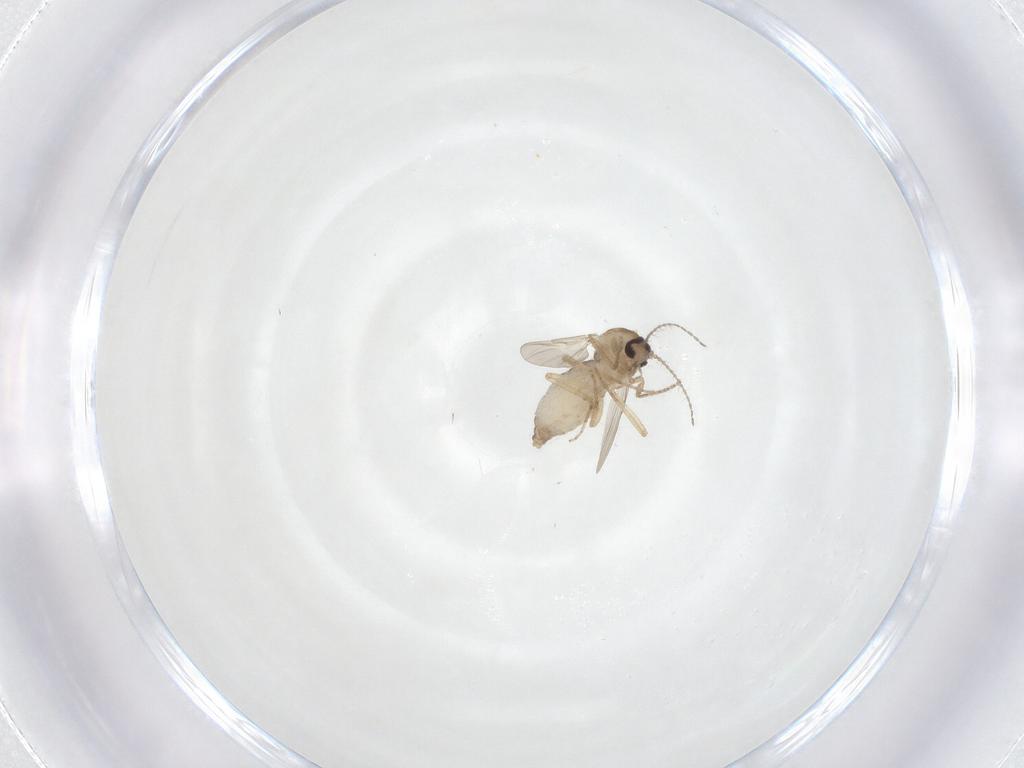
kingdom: Animalia
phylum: Arthropoda
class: Insecta
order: Diptera
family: Ceratopogonidae
